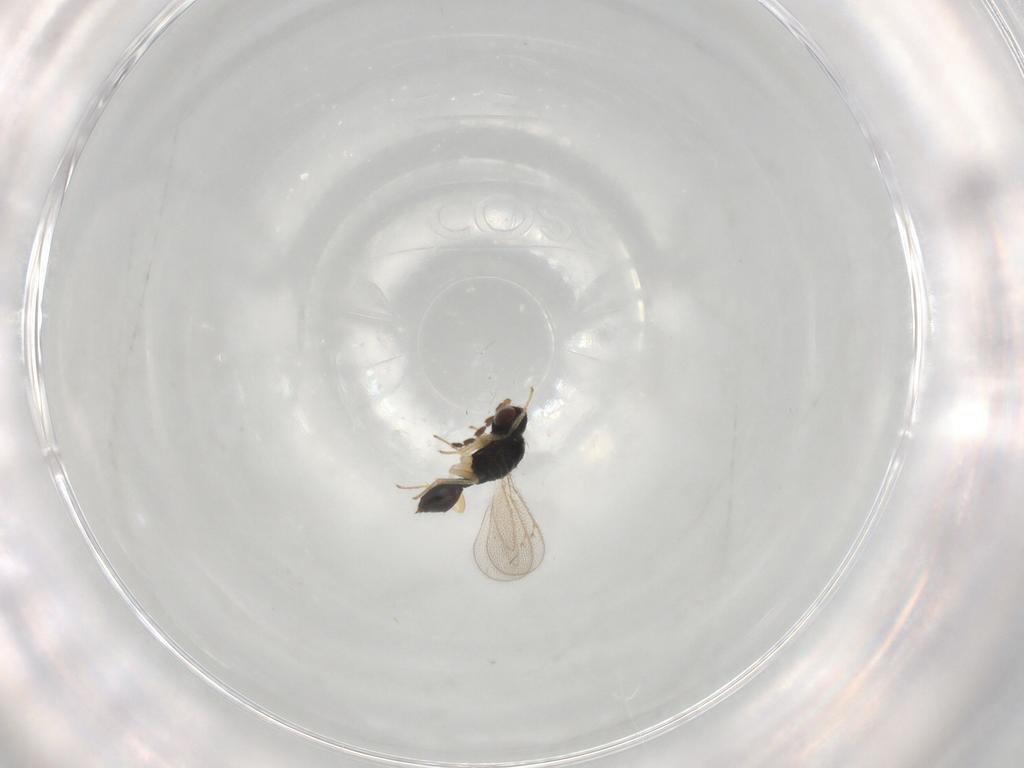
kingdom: Animalia
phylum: Arthropoda
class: Insecta
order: Hymenoptera
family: Eulophidae
